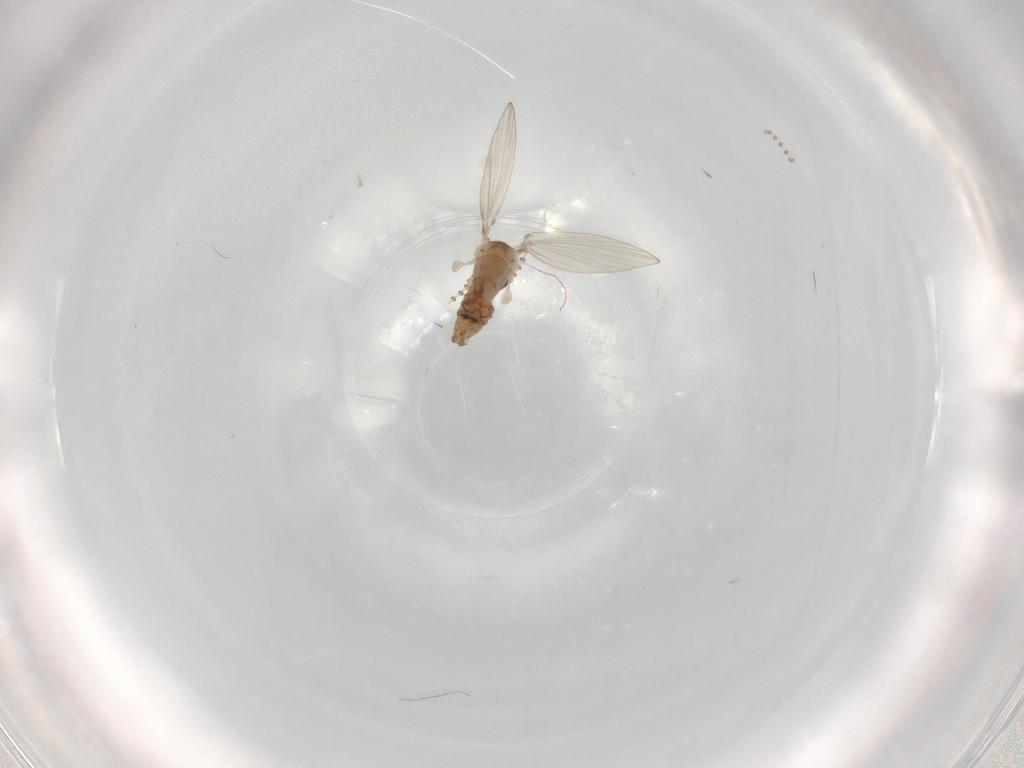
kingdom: Animalia
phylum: Arthropoda
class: Insecta
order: Diptera
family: Psychodidae
